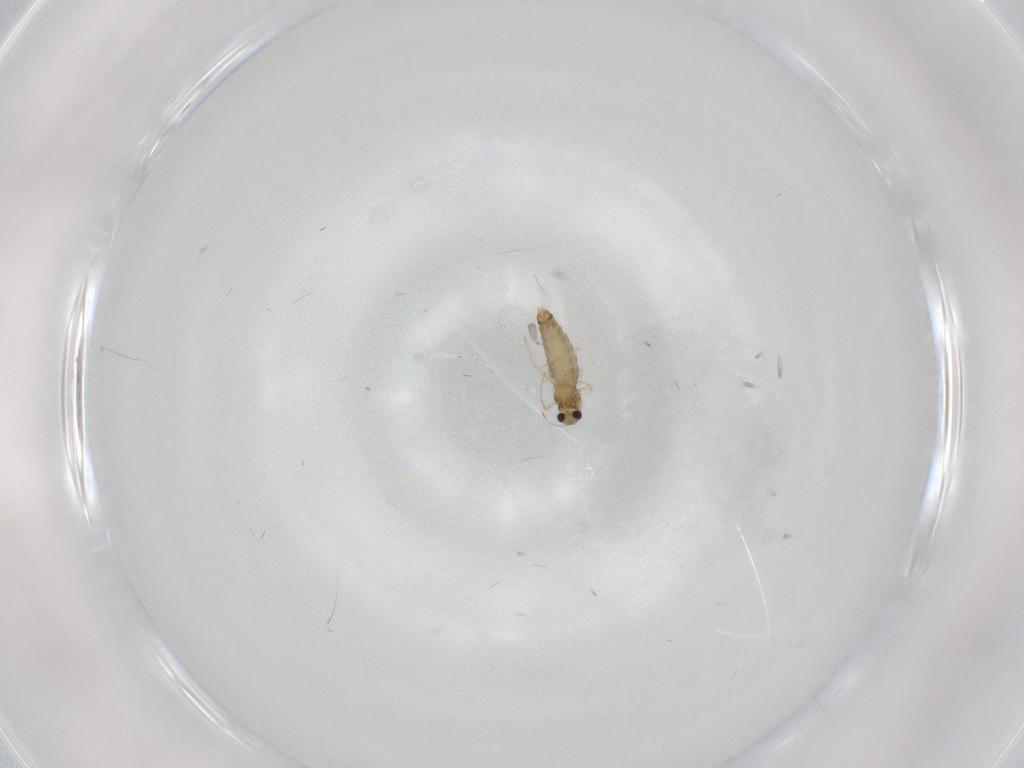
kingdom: Animalia
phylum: Arthropoda
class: Insecta
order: Diptera
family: Chironomidae
